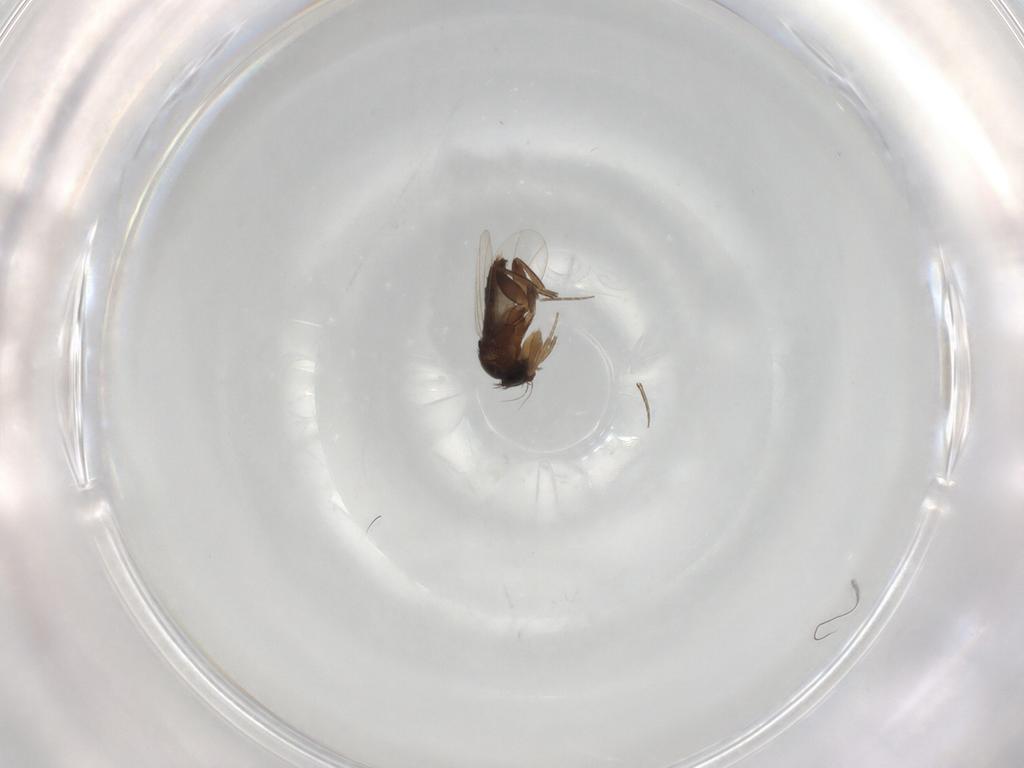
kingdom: Animalia
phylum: Arthropoda
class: Insecta
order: Diptera
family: Phoridae
